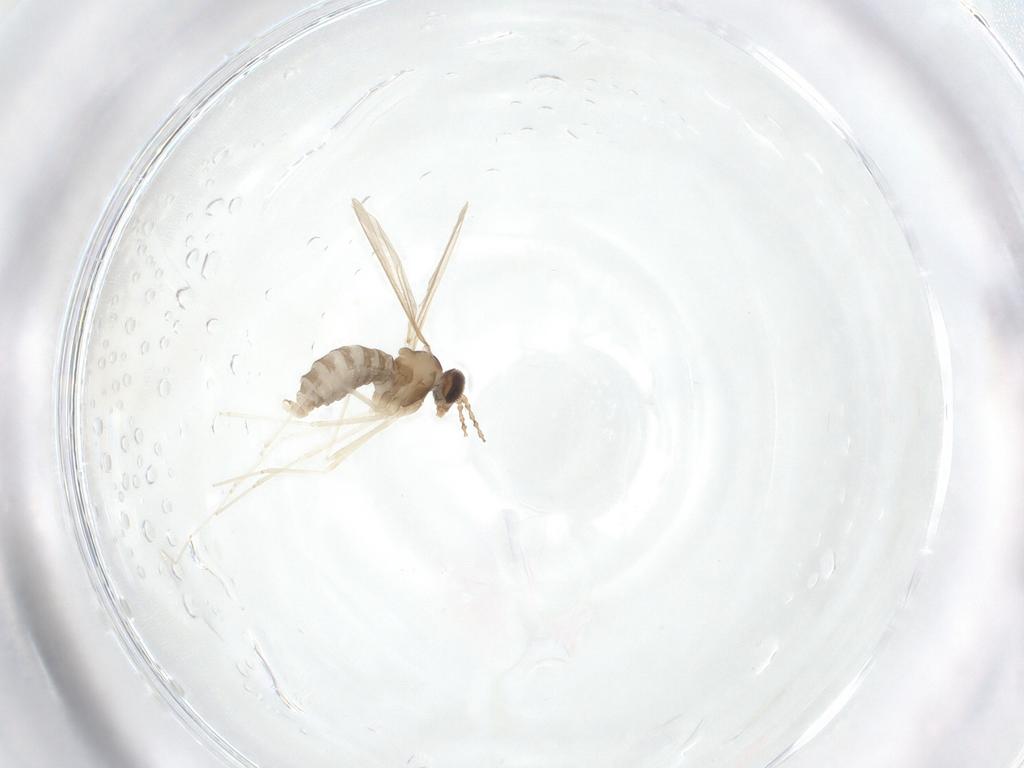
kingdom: Animalia
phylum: Arthropoda
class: Insecta
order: Diptera
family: Cecidomyiidae
